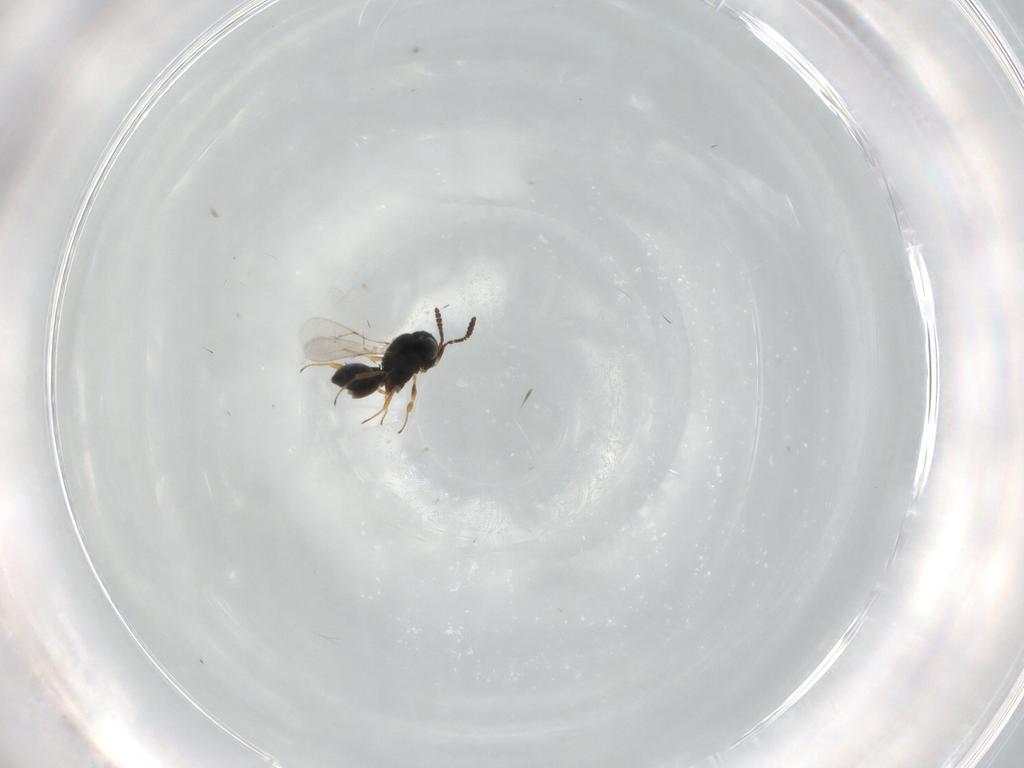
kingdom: Animalia
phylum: Arthropoda
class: Insecta
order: Hymenoptera
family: Scelionidae
